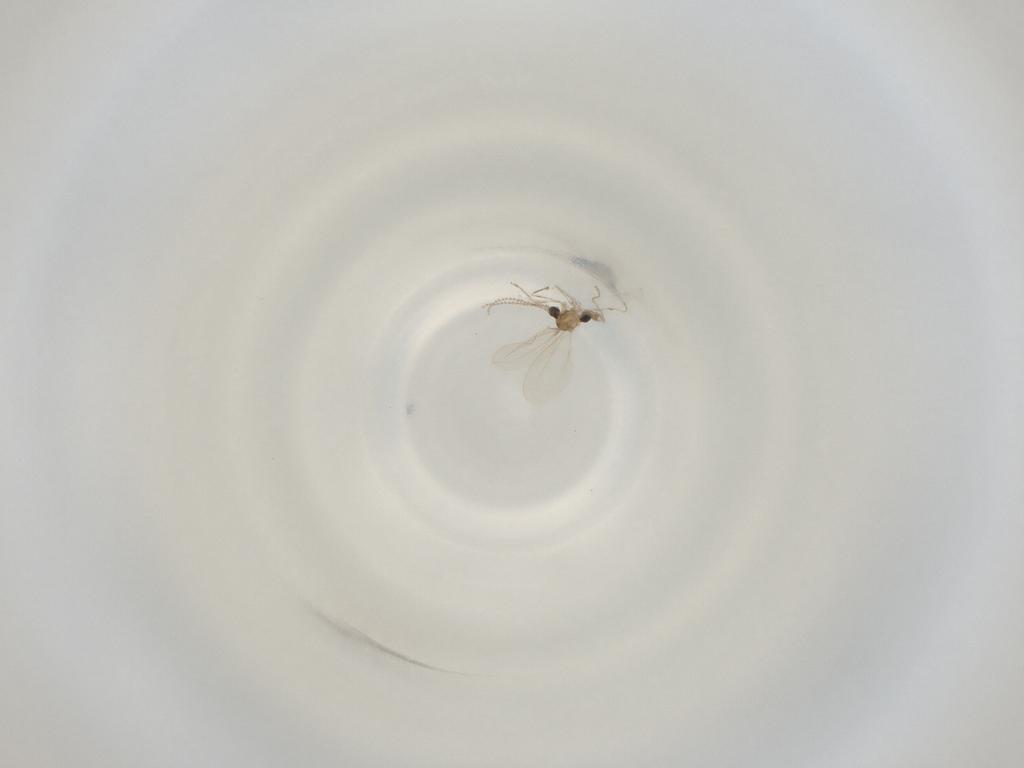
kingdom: Animalia
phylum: Arthropoda
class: Insecta
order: Diptera
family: Cecidomyiidae
